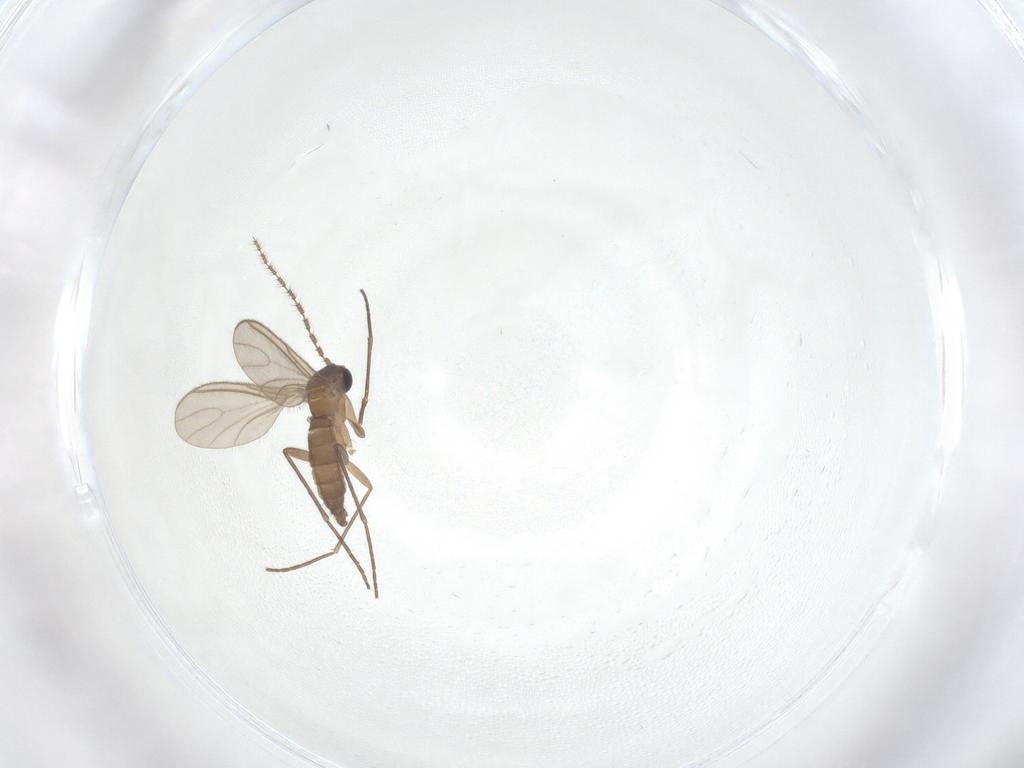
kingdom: Animalia
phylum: Arthropoda
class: Insecta
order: Diptera
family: Sciaridae
